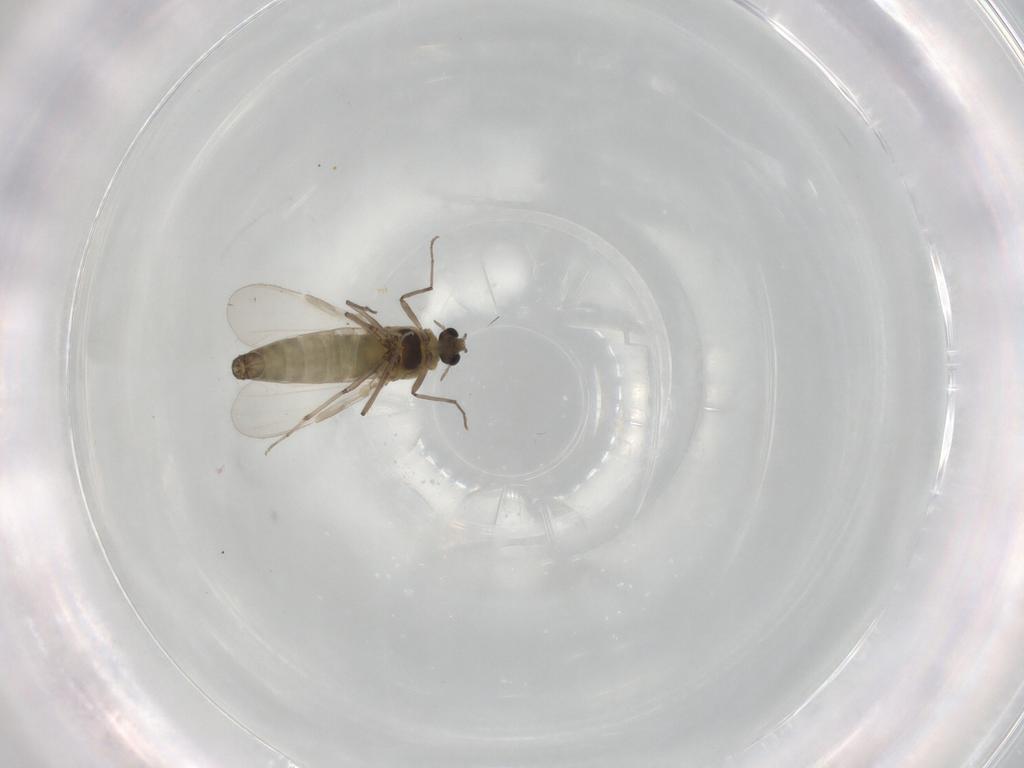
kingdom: Animalia
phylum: Arthropoda
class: Insecta
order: Diptera
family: Chironomidae
